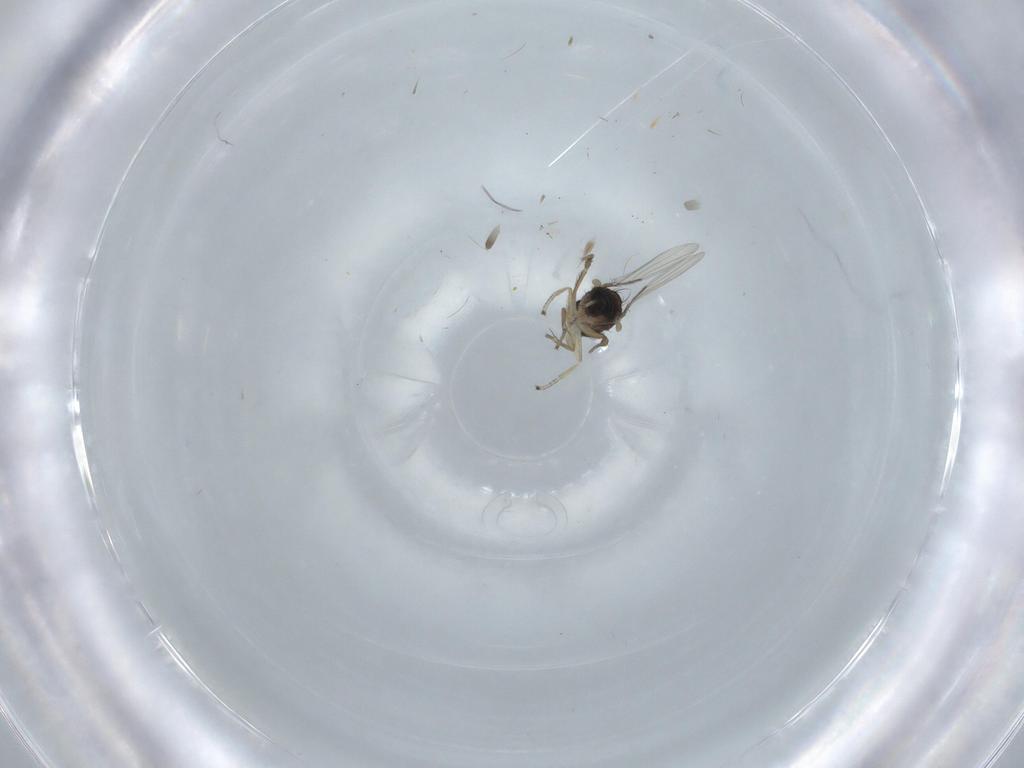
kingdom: Animalia
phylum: Arthropoda
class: Insecta
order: Diptera
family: Phoridae
